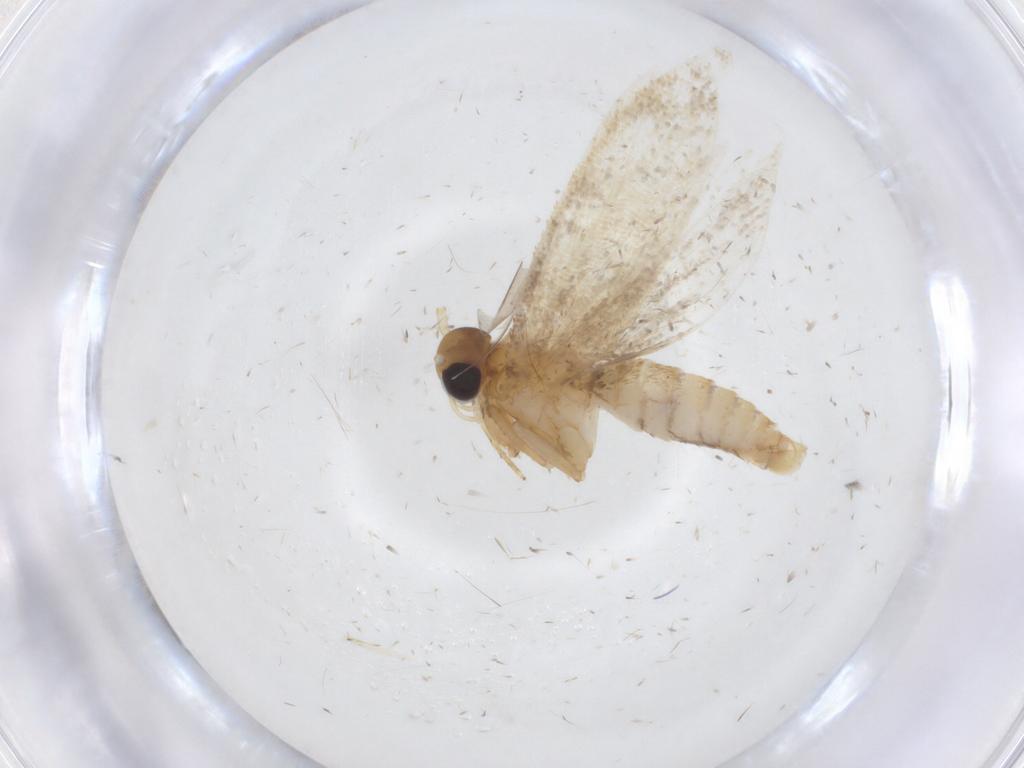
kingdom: Animalia
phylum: Arthropoda
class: Insecta
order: Lepidoptera
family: Oecophoridae
